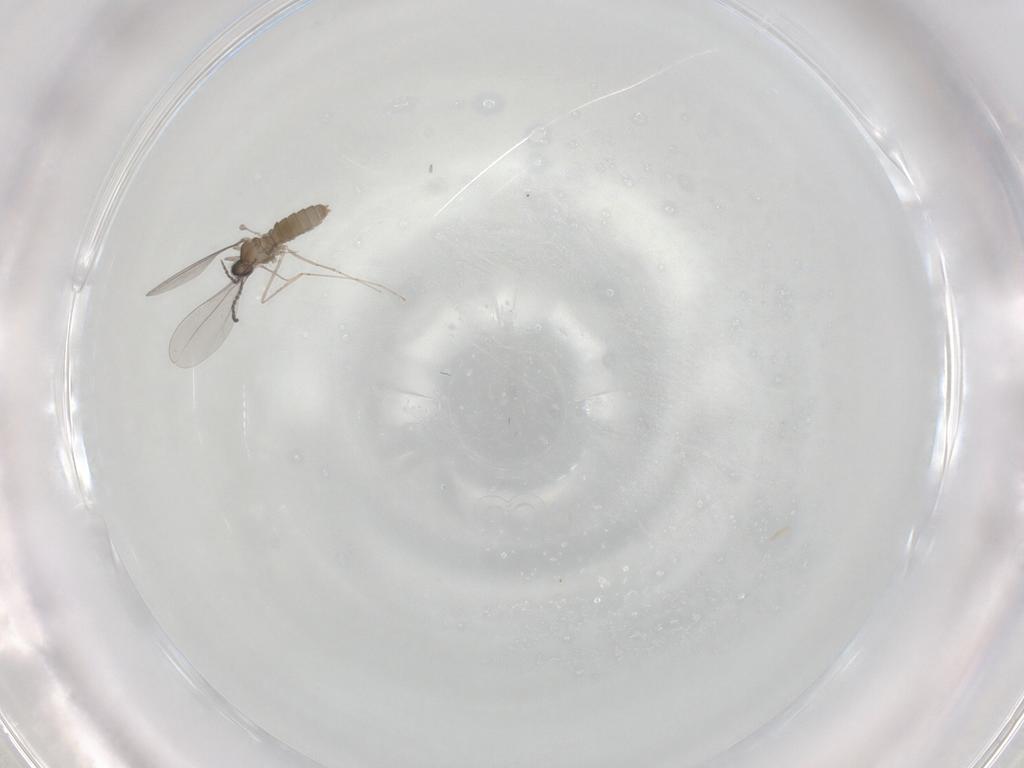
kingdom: Animalia
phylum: Arthropoda
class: Insecta
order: Diptera
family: Cecidomyiidae
